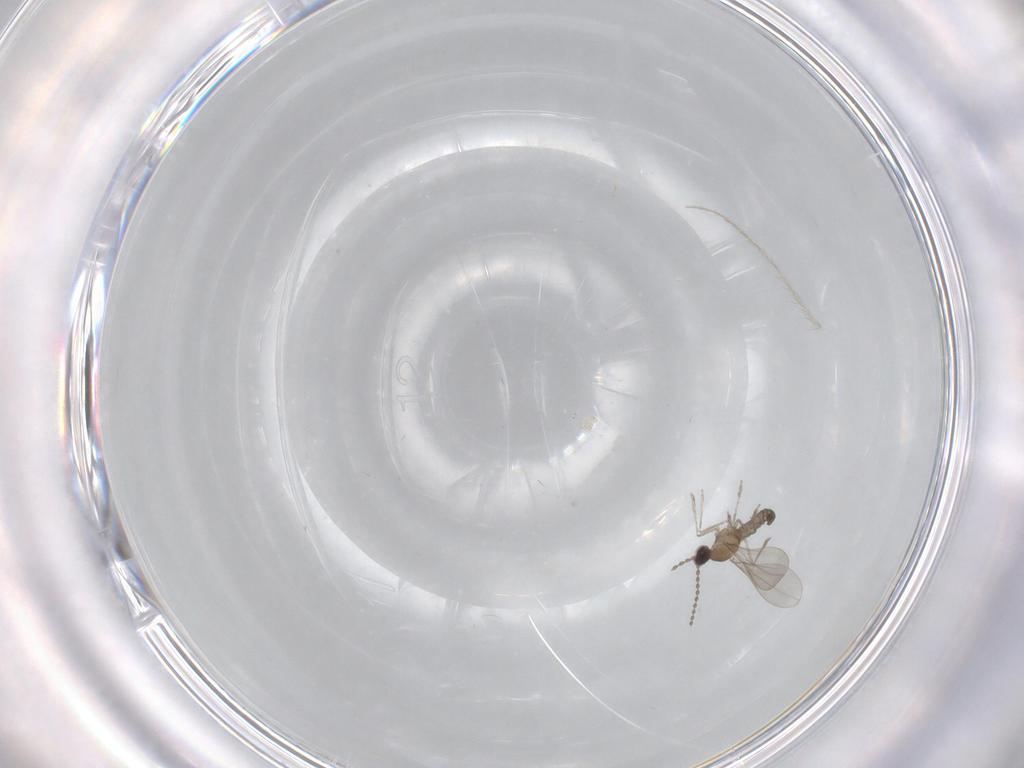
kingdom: Animalia
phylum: Arthropoda
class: Insecta
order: Diptera
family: Cecidomyiidae
